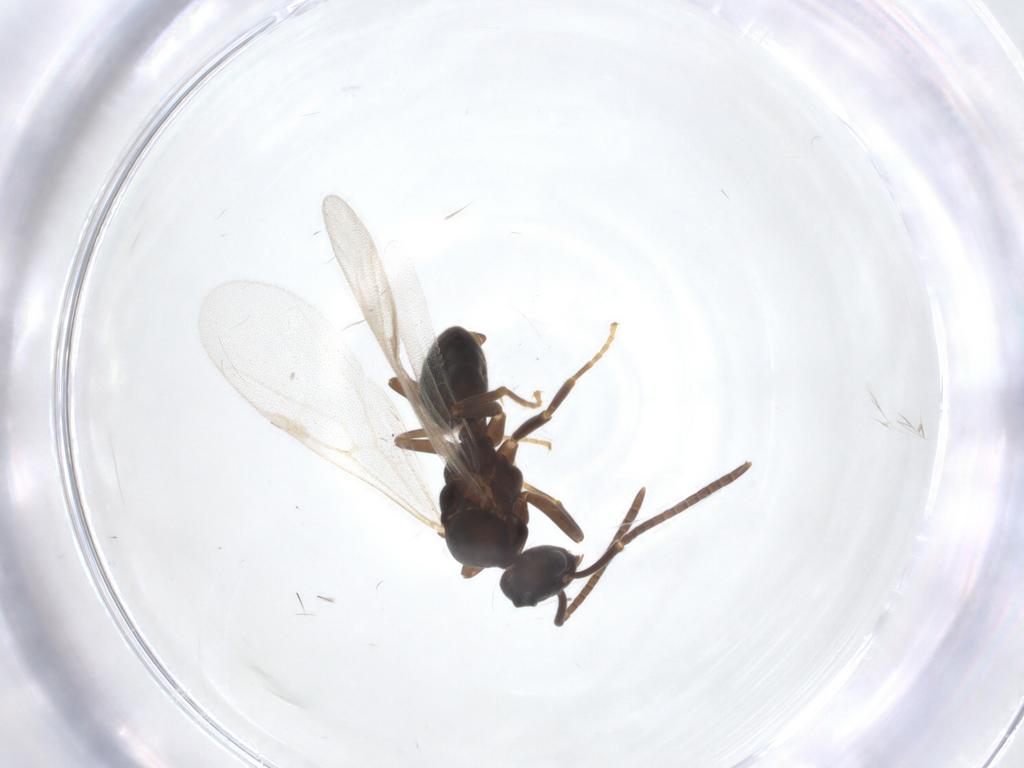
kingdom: Animalia
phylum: Arthropoda
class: Insecta
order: Hymenoptera
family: Formicidae
